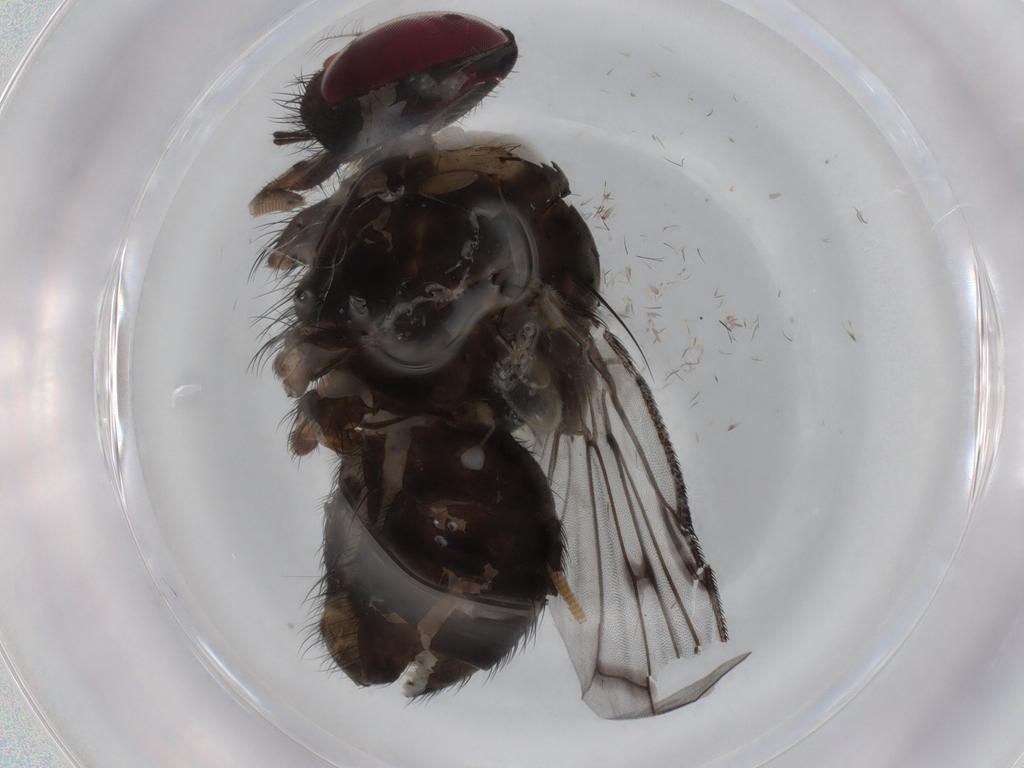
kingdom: Animalia
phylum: Arthropoda
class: Insecta
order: Diptera
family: Muscidae
